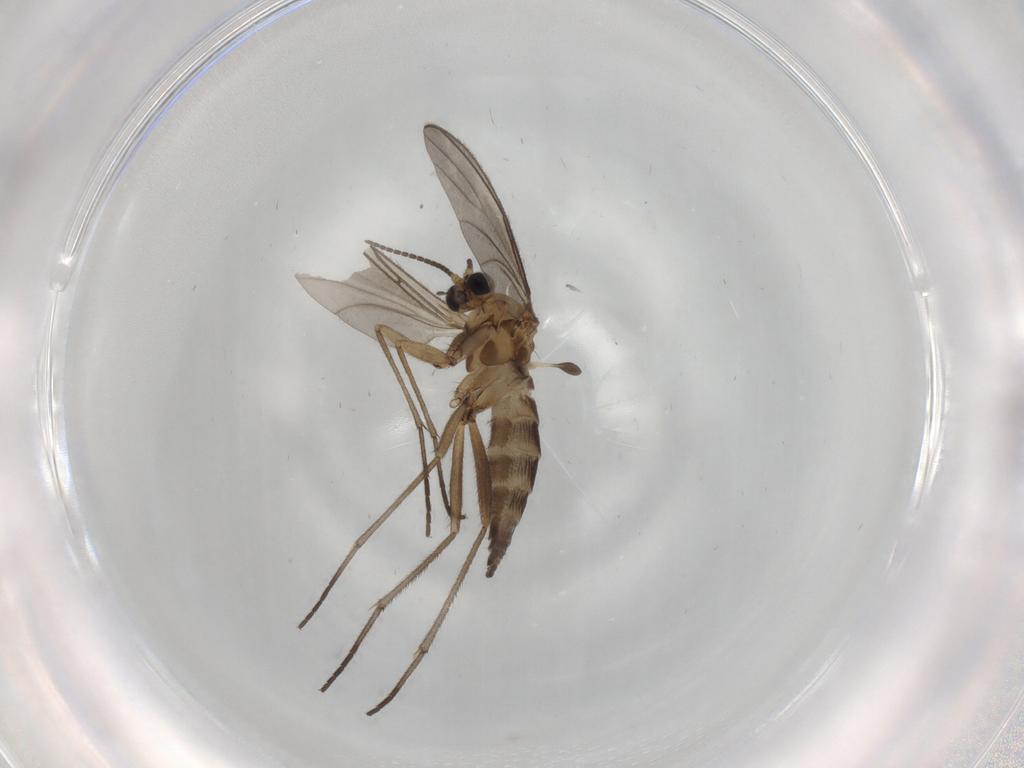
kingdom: Animalia
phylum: Arthropoda
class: Insecta
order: Diptera
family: Sciaridae
